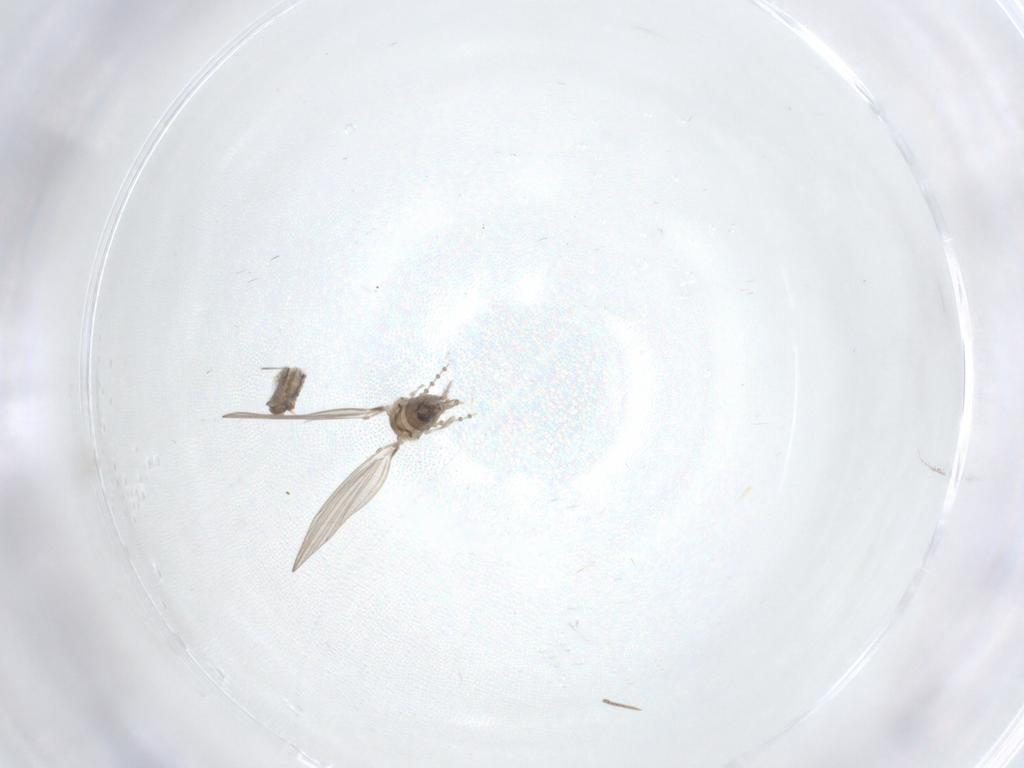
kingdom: Animalia
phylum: Arthropoda
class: Insecta
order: Diptera
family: Psychodidae
